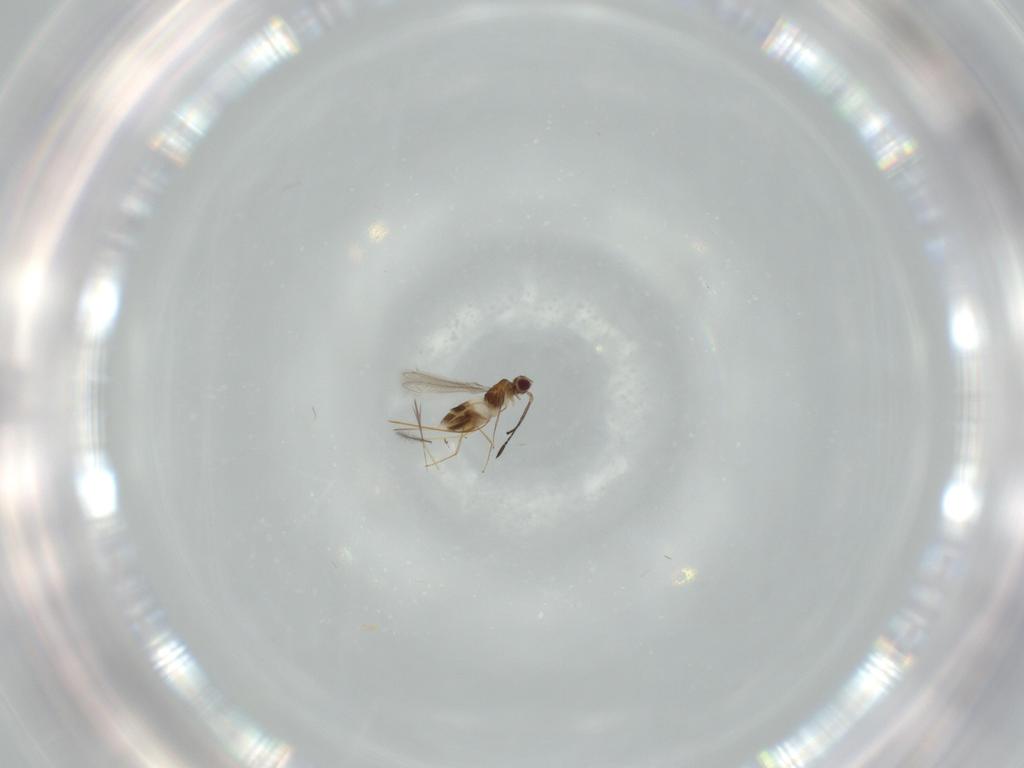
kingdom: Animalia
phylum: Arthropoda
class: Insecta
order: Hymenoptera
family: Mymaridae
